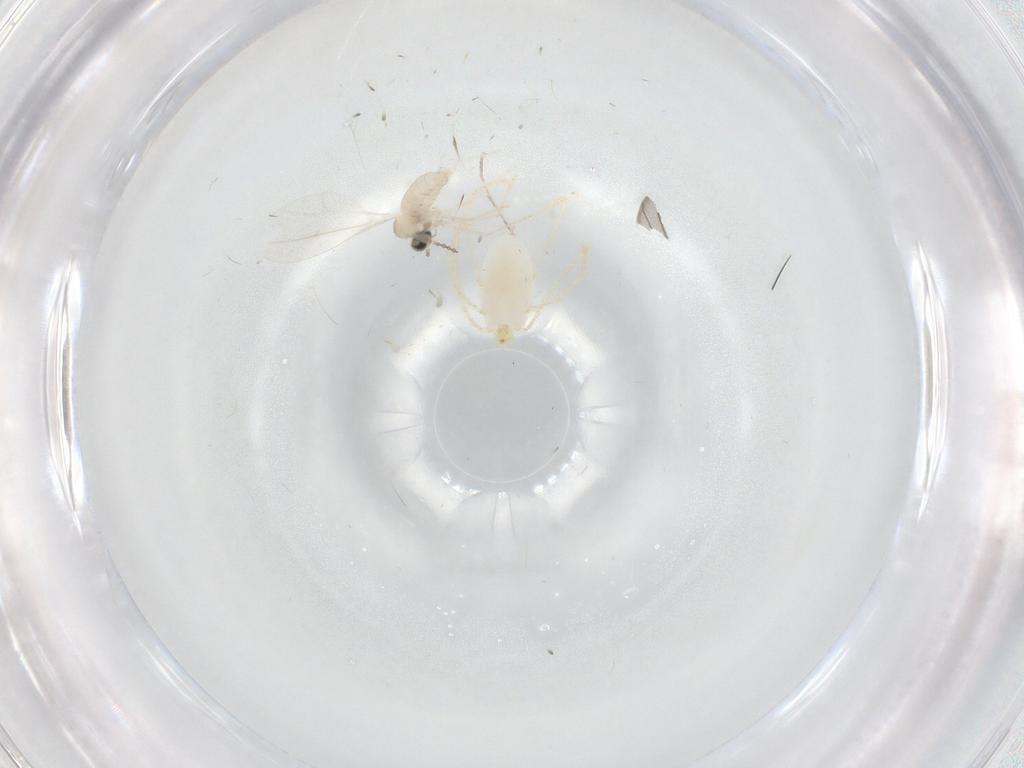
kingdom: Animalia
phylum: Arthropoda
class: Arachnida
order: Trombidiformes
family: Erythraeidae
